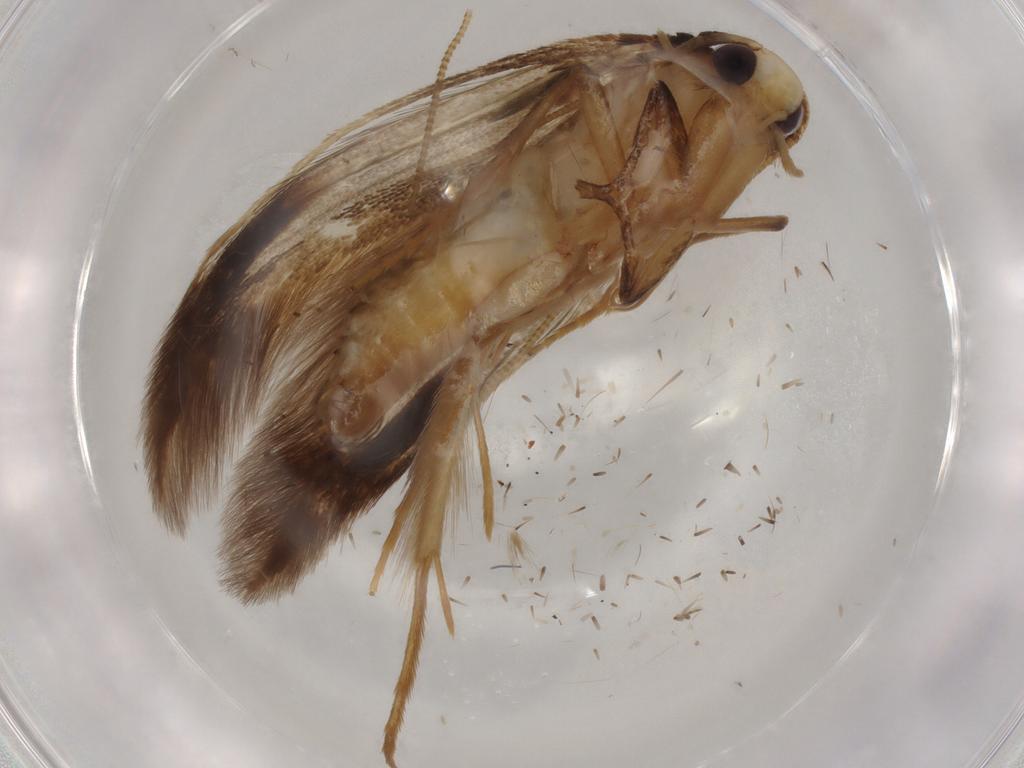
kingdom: Animalia
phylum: Arthropoda
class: Insecta
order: Lepidoptera
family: Tineidae
